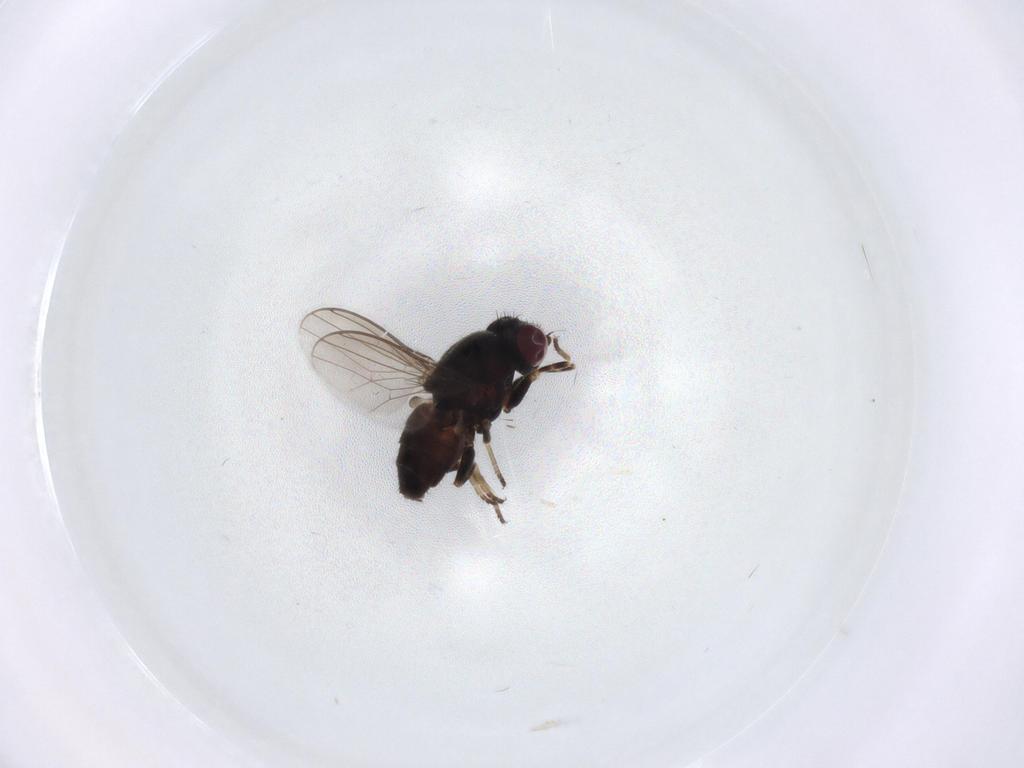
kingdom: Animalia
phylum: Arthropoda
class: Insecta
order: Diptera
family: Chloropidae
